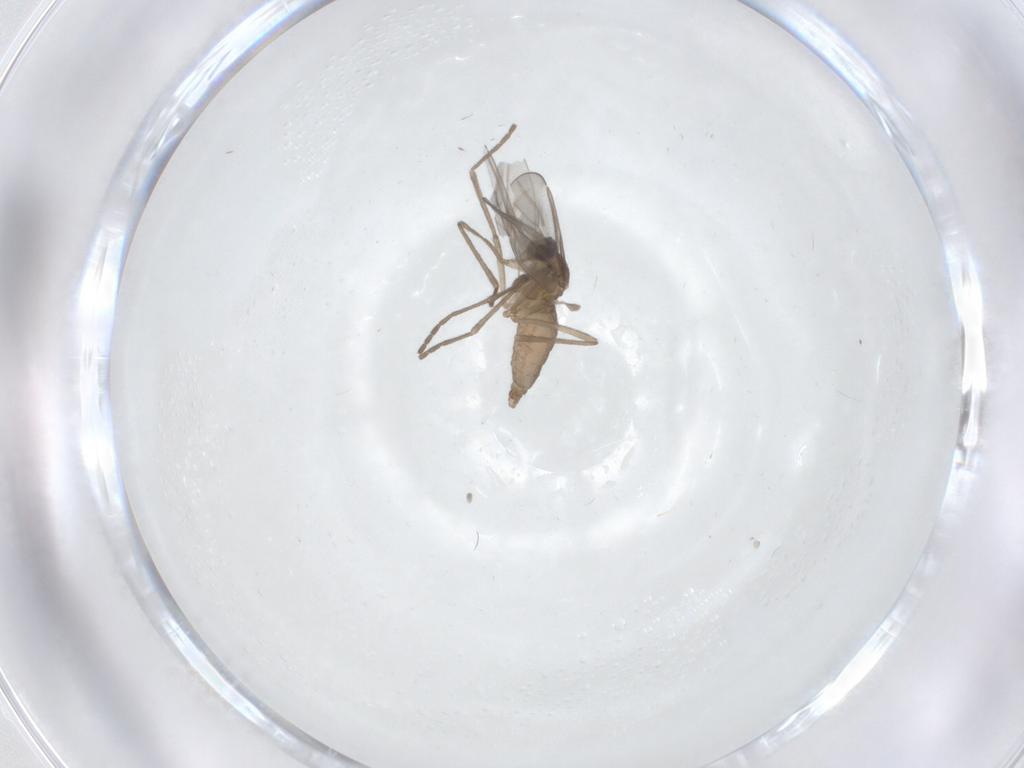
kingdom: Animalia
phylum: Arthropoda
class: Insecta
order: Diptera
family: Cecidomyiidae
